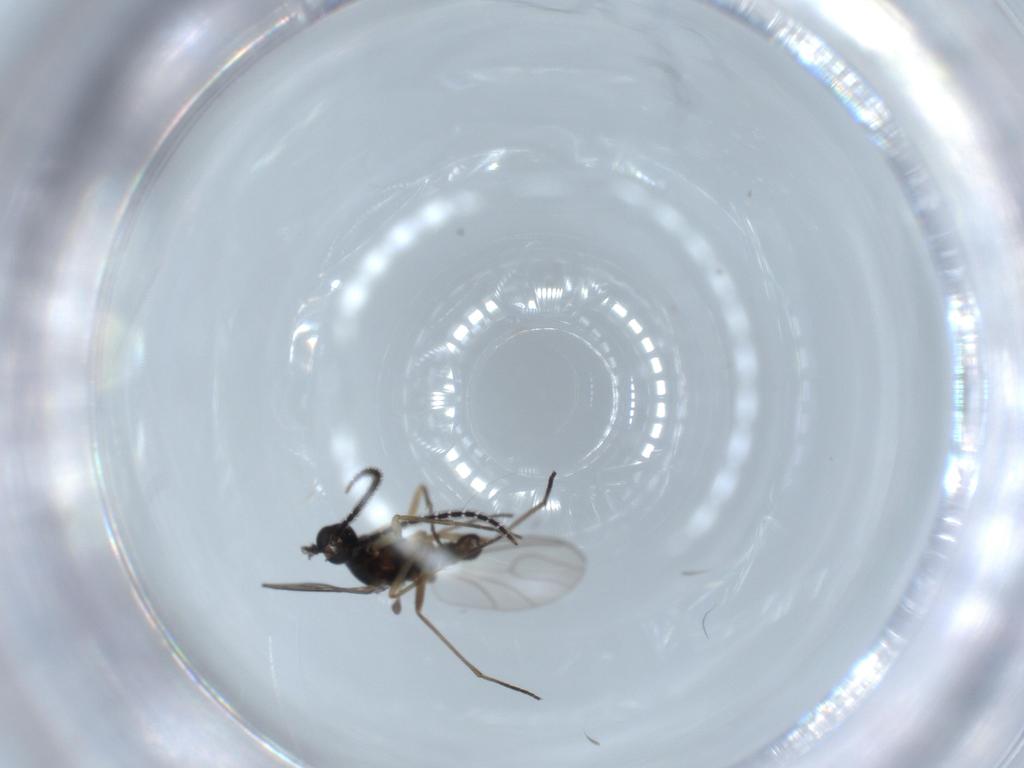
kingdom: Animalia
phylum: Arthropoda
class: Insecta
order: Diptera
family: Sciaridae
